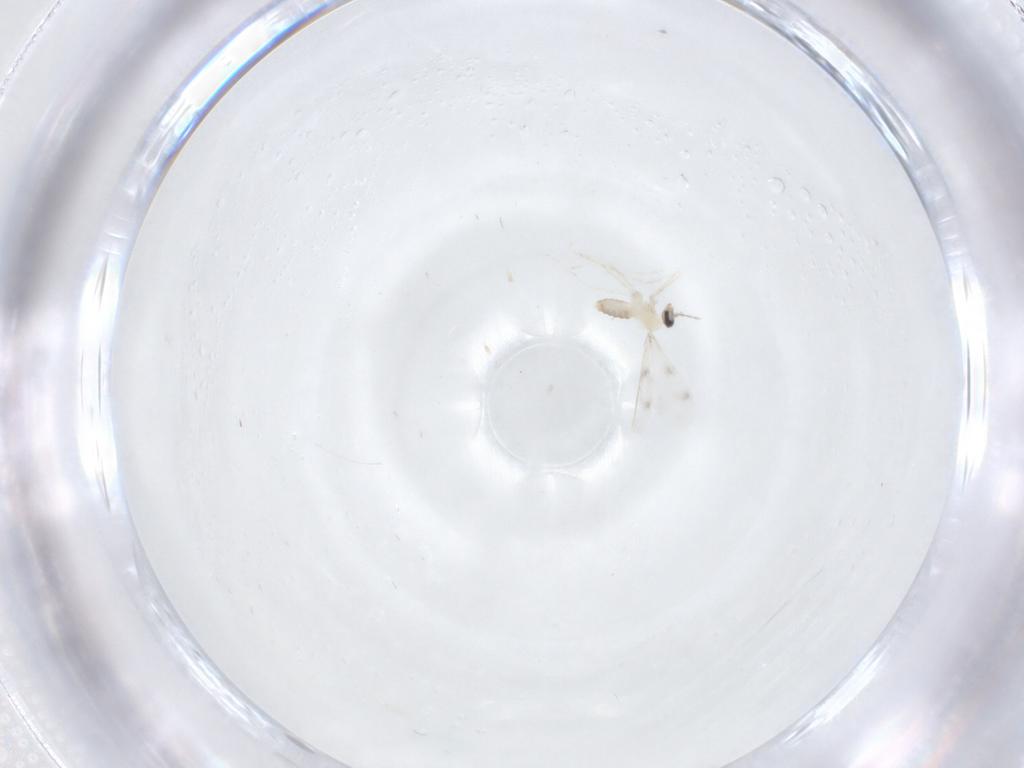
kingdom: Animalia
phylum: Arthropoda
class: Insecta
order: Diptera
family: Cecidomyiidae
